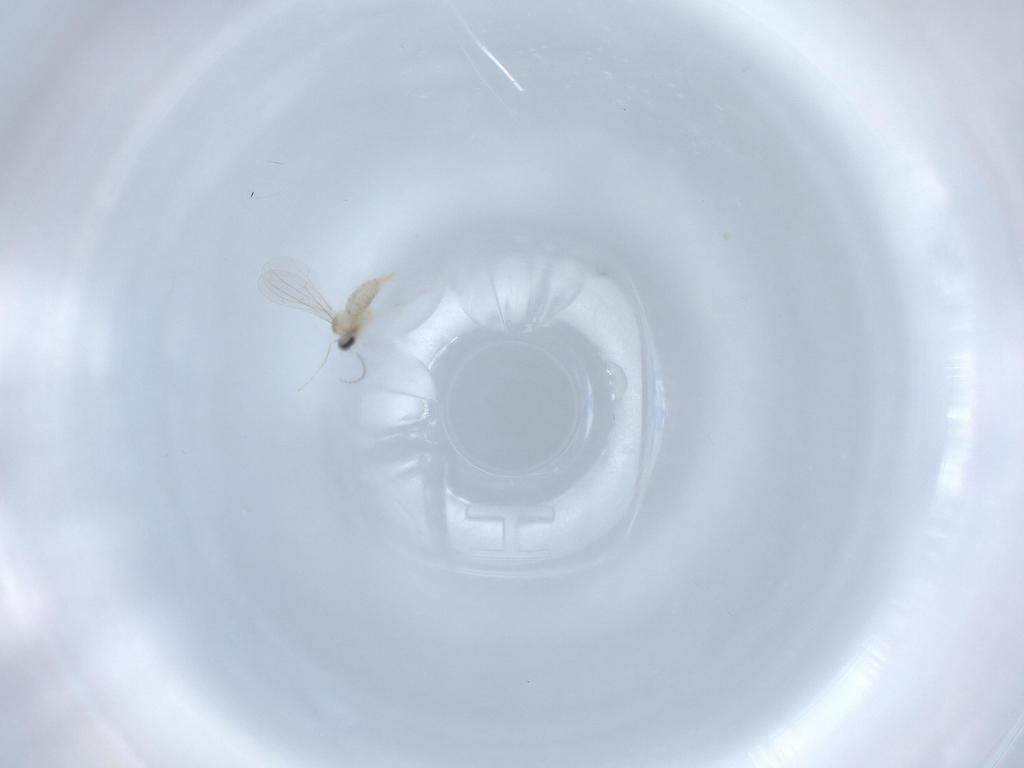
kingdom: Animalia
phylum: Arthropoda
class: Insecta
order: Diptera
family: Cecidomyiidae
